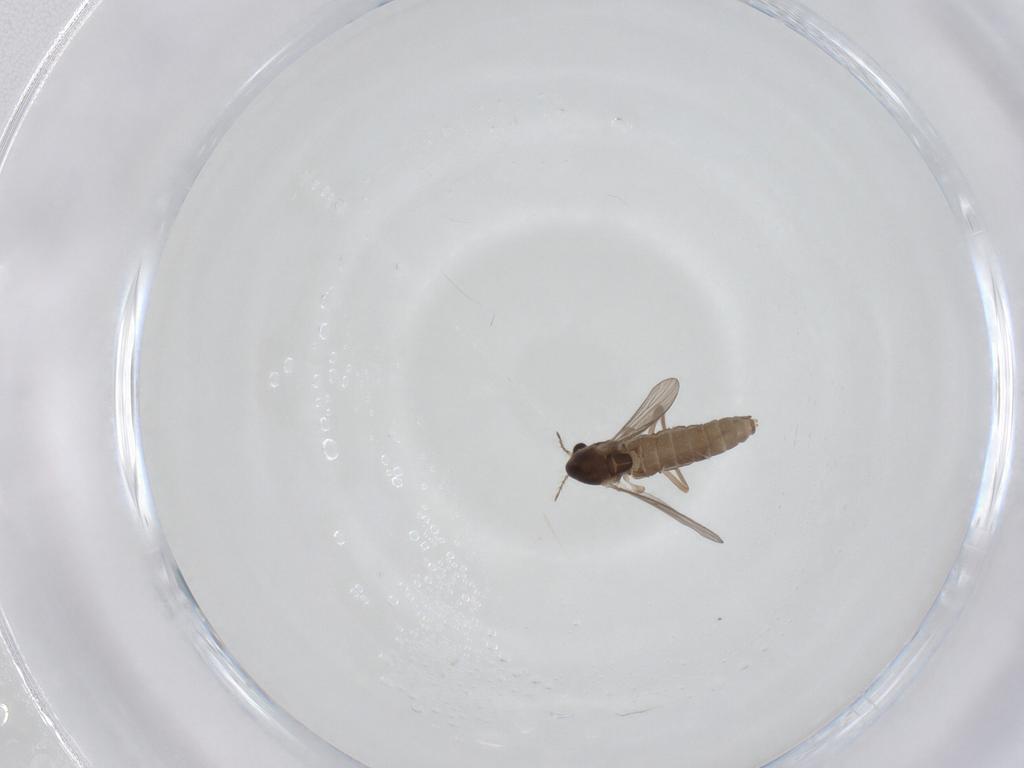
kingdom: Animalia
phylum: Arthropoda
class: Insecta
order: Diptera
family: Chironomidae
